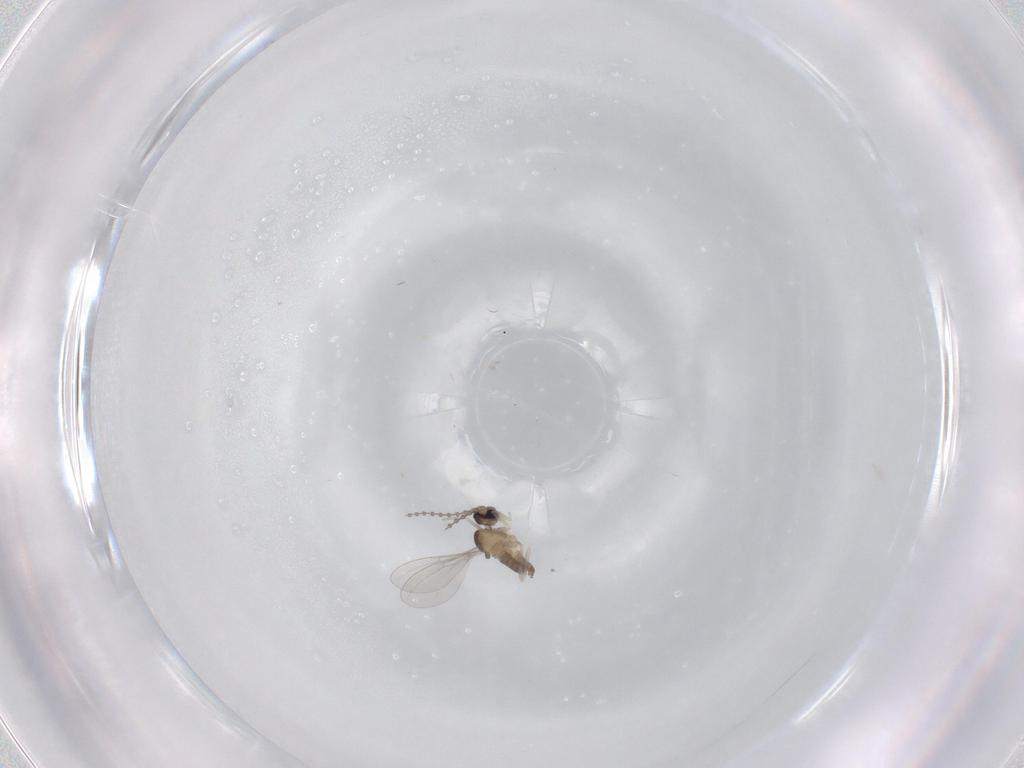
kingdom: Animalia
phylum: Arthropoda
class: Insecta
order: Diptera
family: Cecidomyiidae
